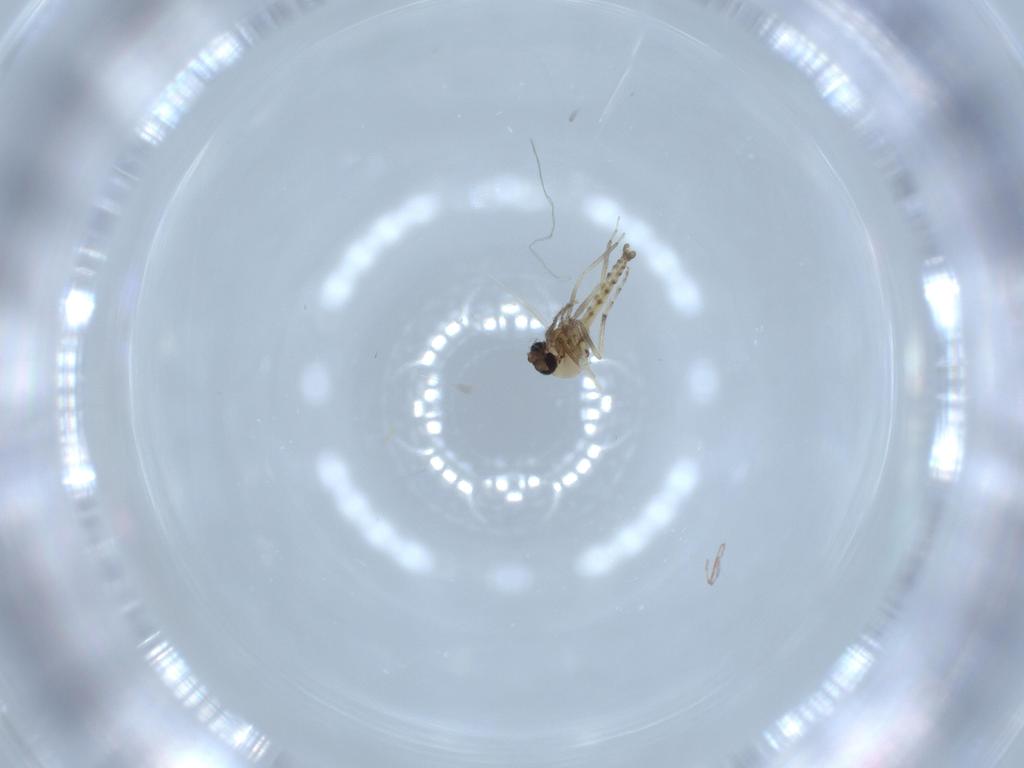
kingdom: Animalia
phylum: Arthropoda
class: Insecta
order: Diptera
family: Ceratopogonidae
